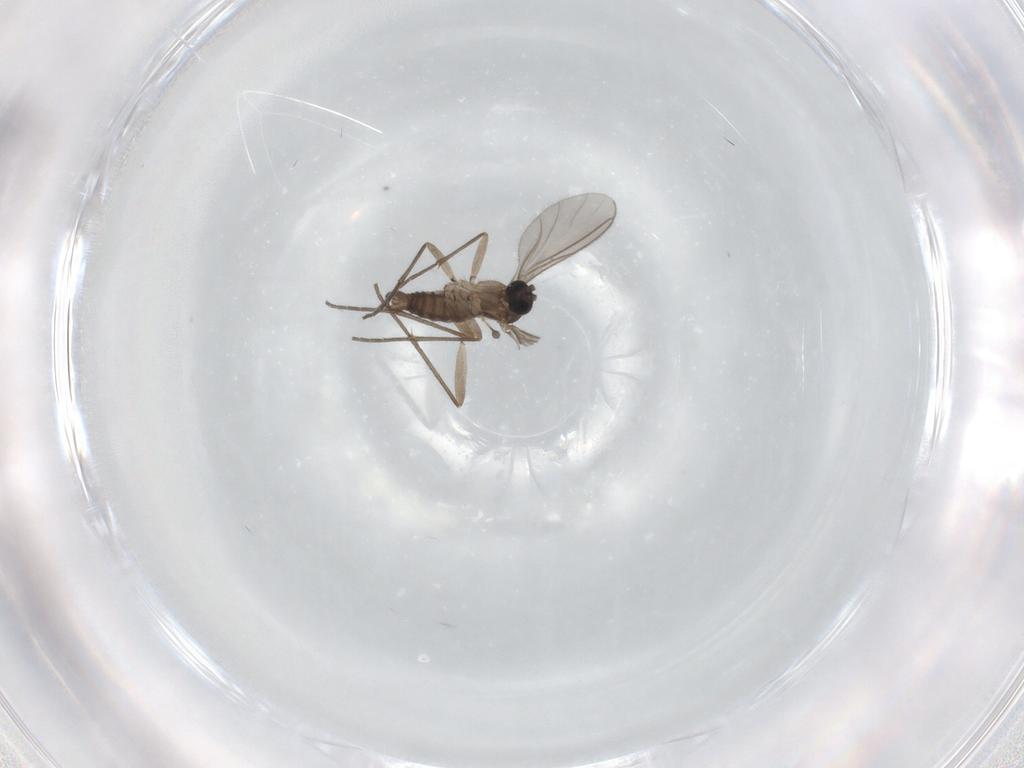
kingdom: Animalia
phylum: Arthropoda
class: Insecta
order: Diptera
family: Sciaridae
